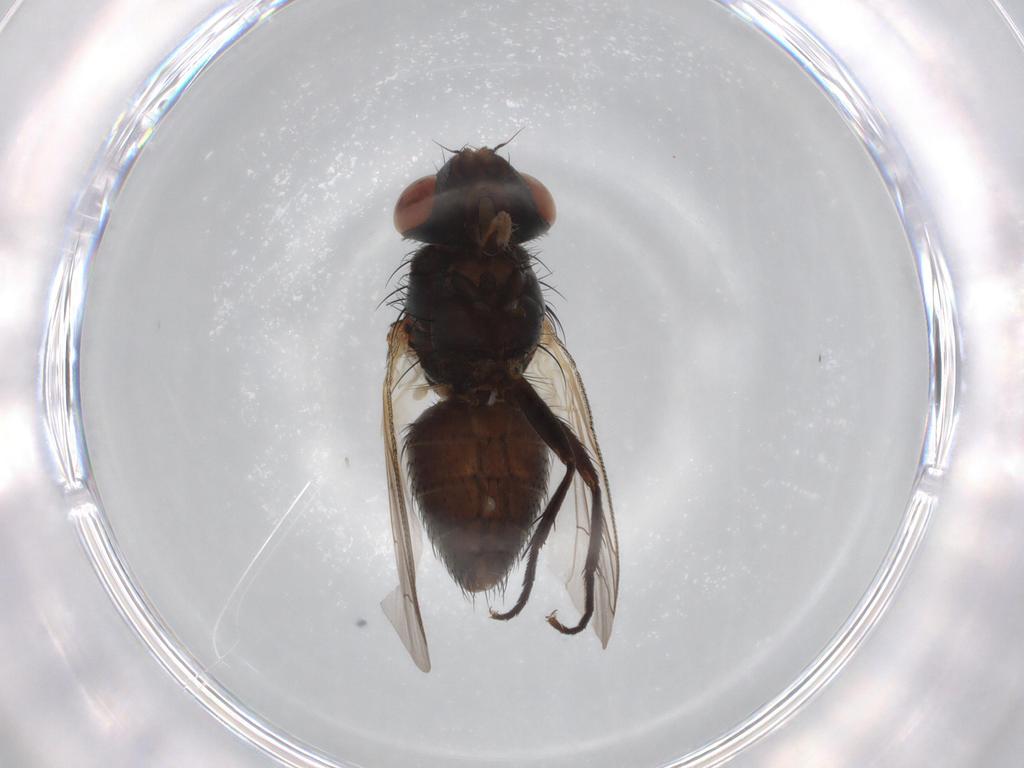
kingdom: Animalia
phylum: Arthropoda
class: Insecta
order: Diptera
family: Sarcophagidae
